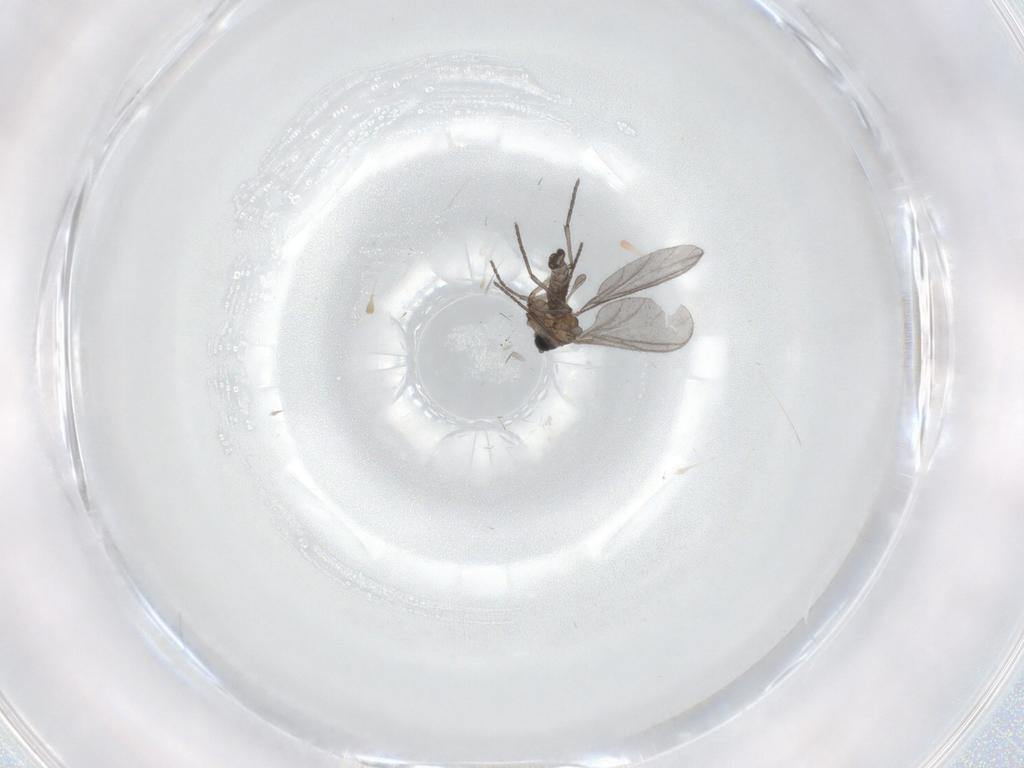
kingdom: Animalia
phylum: Arthropoda
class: Insecta
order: Diptera
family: Sciaridae
